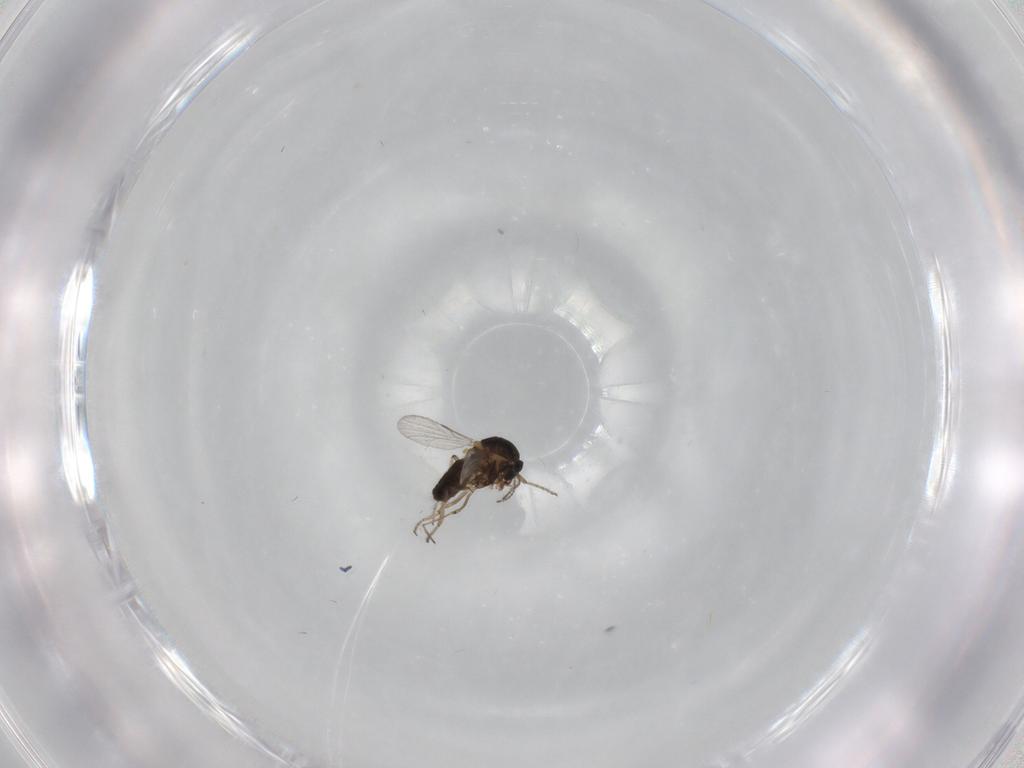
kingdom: Animalia
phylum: Arthropoda
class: Insecta
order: Diptera
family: Ceratopogonidae
